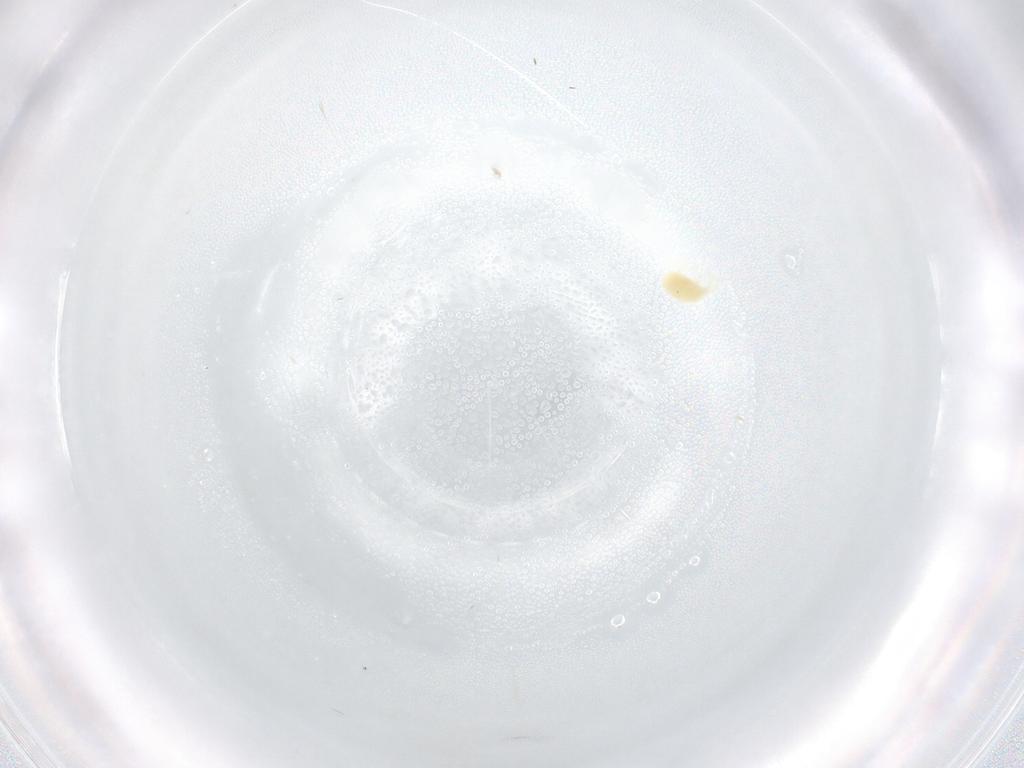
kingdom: Animalia
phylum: Arthropoda
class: Arachnida
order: Trombidiformes
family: Tetranychidae
